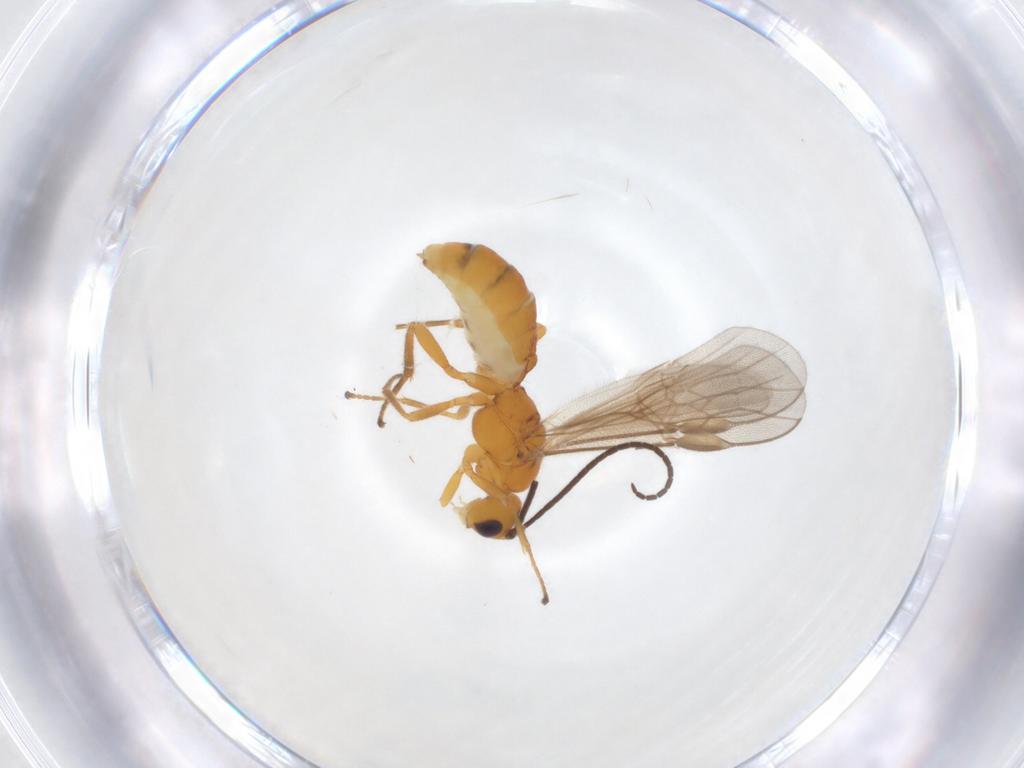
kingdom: Animalia
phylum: Arthropoda
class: Insecta
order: Hymenoptera
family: Braconidae
